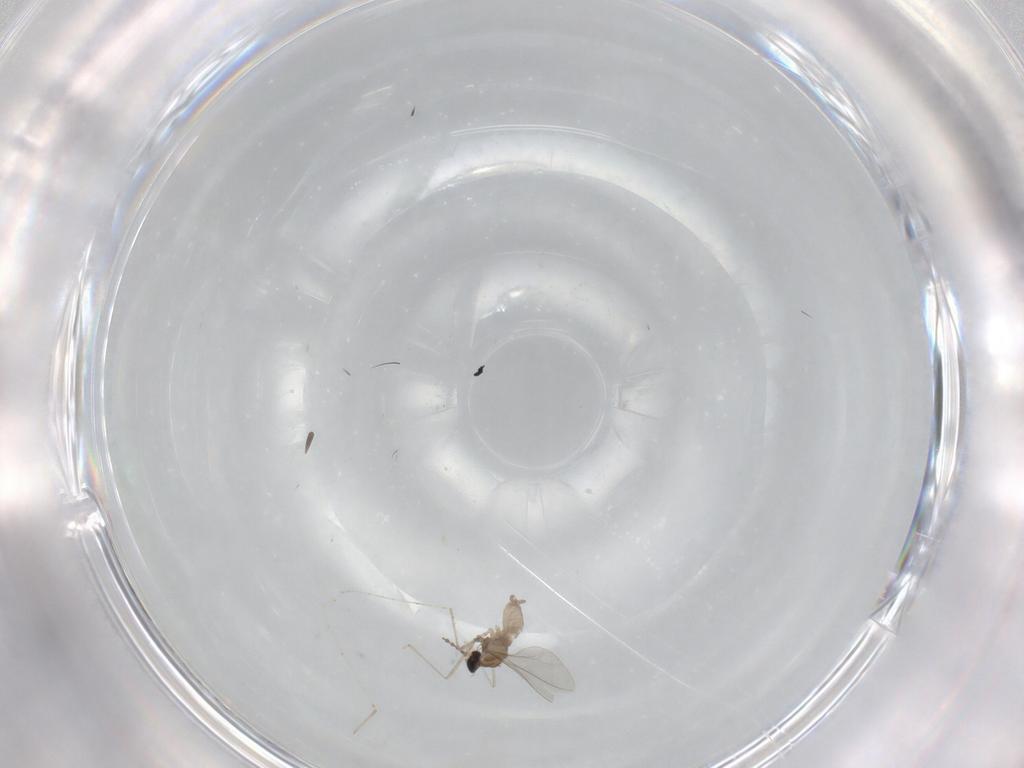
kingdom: Animalia
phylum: Arthropoda
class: Insecta
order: Diptera
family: Cecidomyiidae
